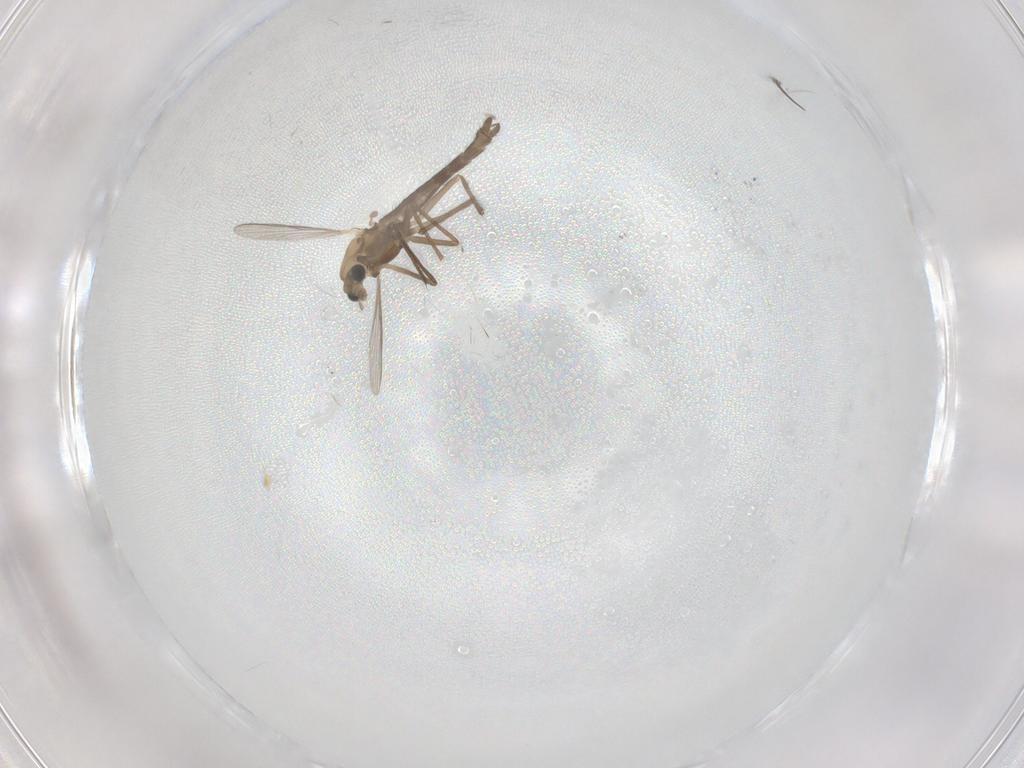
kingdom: Animalia
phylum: Arthropoda
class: Insecta
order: Diptera
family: Chironomidae
